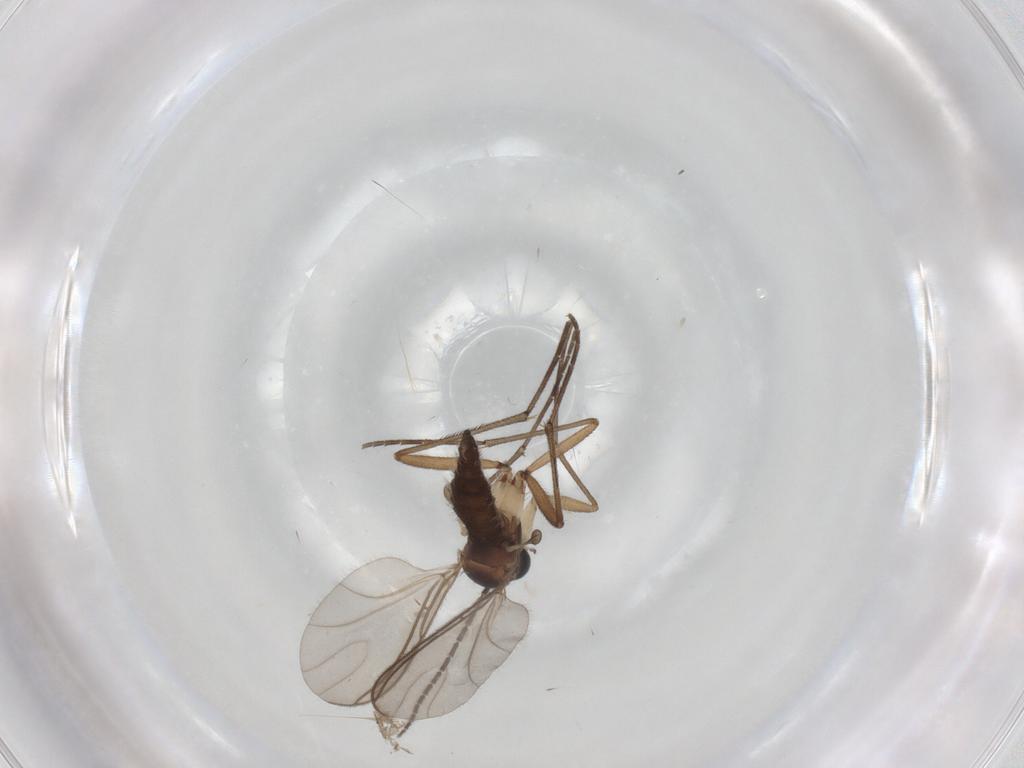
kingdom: Animalia
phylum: Arthropoda
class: Insecta
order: Diptera
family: Sciaridae
